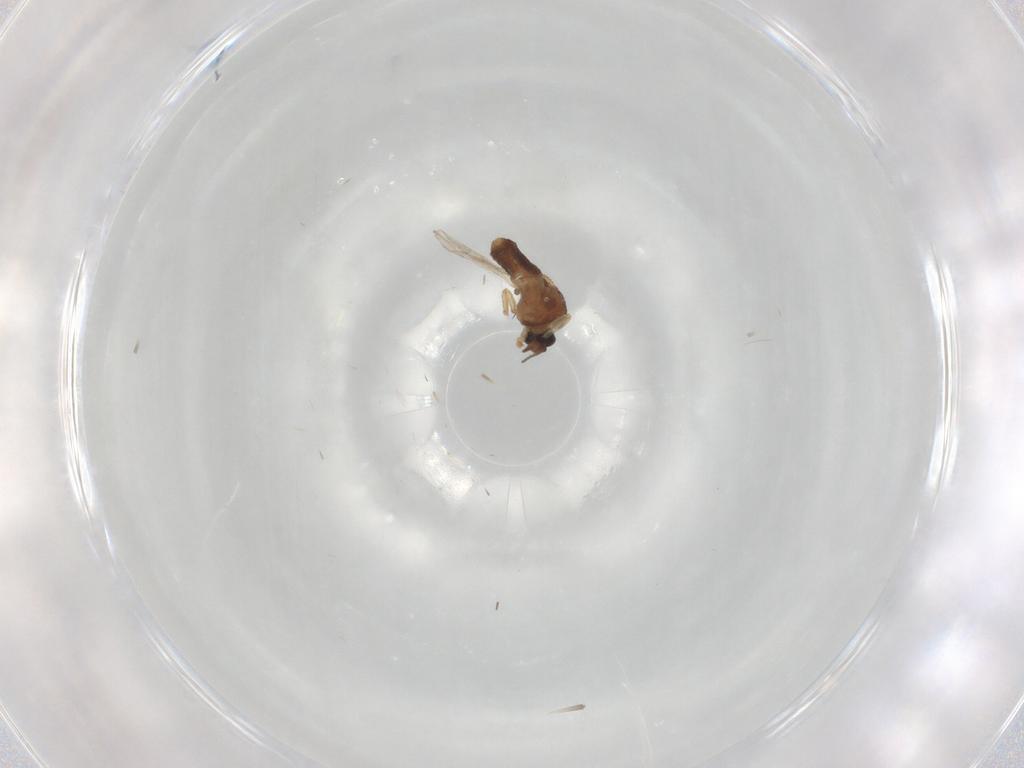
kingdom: Animalia
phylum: Arthropoda
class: Insecta
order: Diptera
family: Ceratopogonidae
